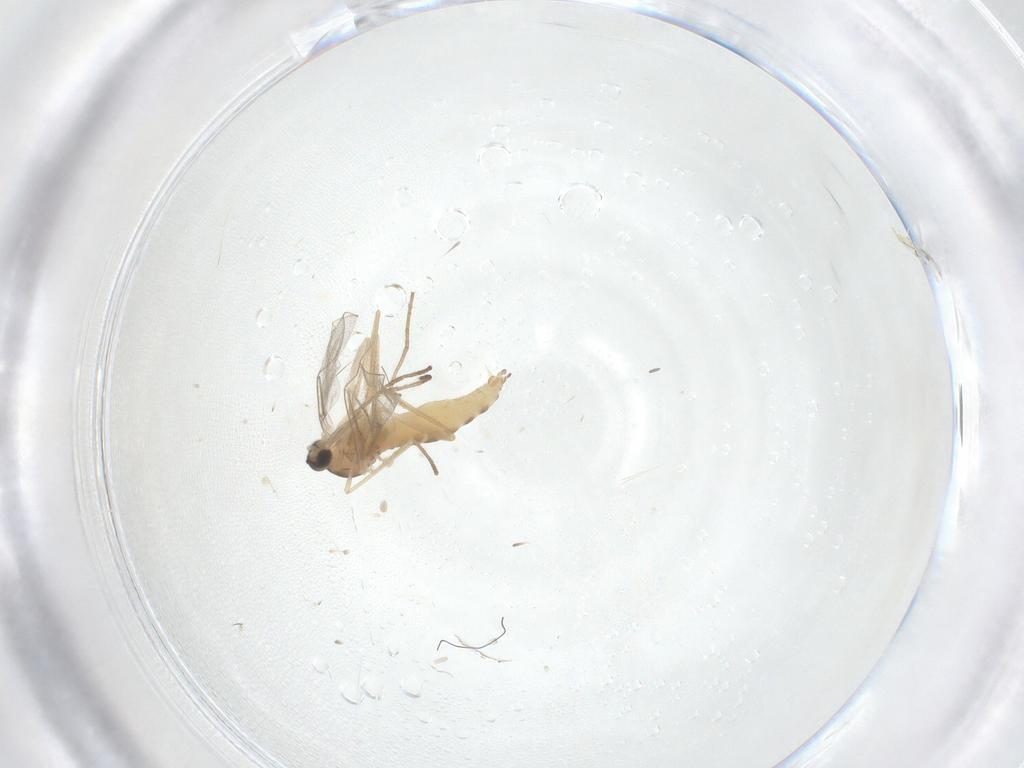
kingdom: Animalia
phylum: Arthropoda
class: Insecta
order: Diptera
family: Cecidomyiidae
